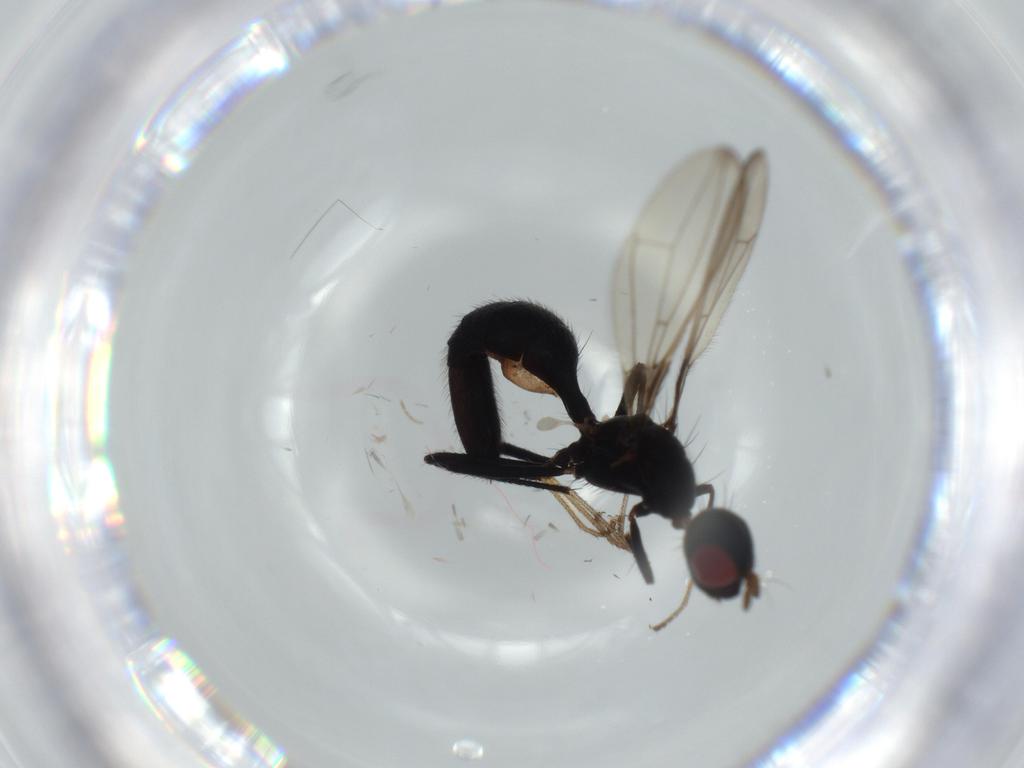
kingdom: Animalia
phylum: Arthropoda
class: Insecta
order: Diptera
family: Richardiidae
